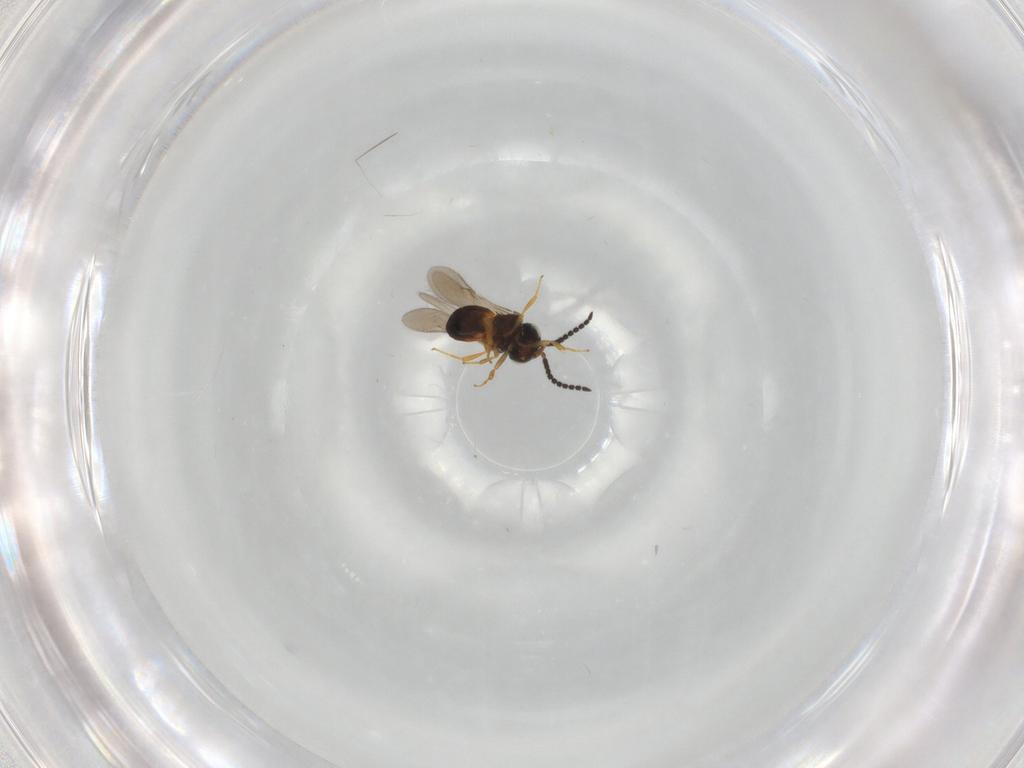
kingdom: Animalia
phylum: Arthropoda
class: Insecta
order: Hymenoptera
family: Scelionidae
